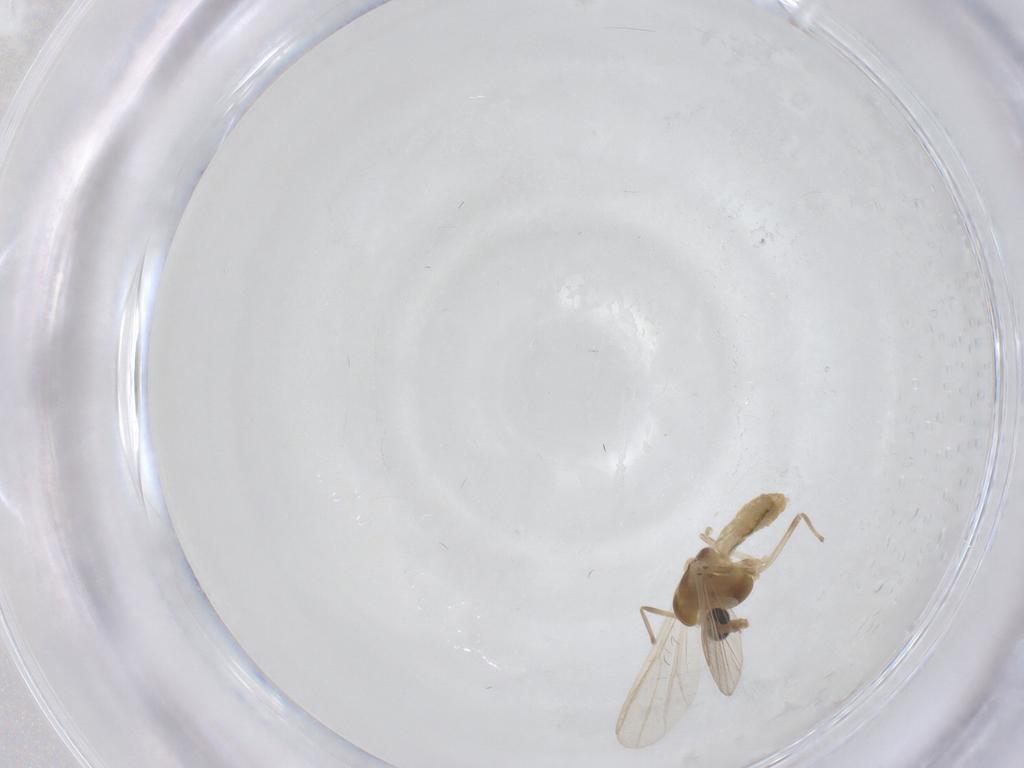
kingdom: Animalia
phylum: Arthropoda
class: Insecta
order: Diptera
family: Chironomidae
